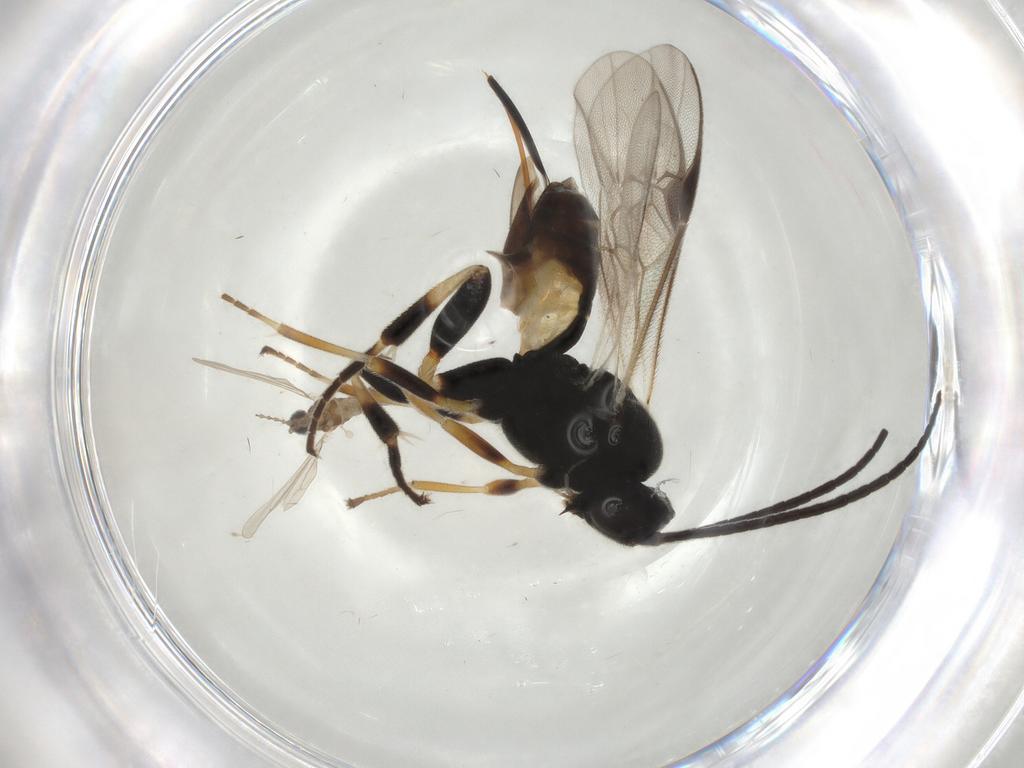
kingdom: Animalia
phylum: Arthropoda
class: Insecta
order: Hymenoptera
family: Braconidae
